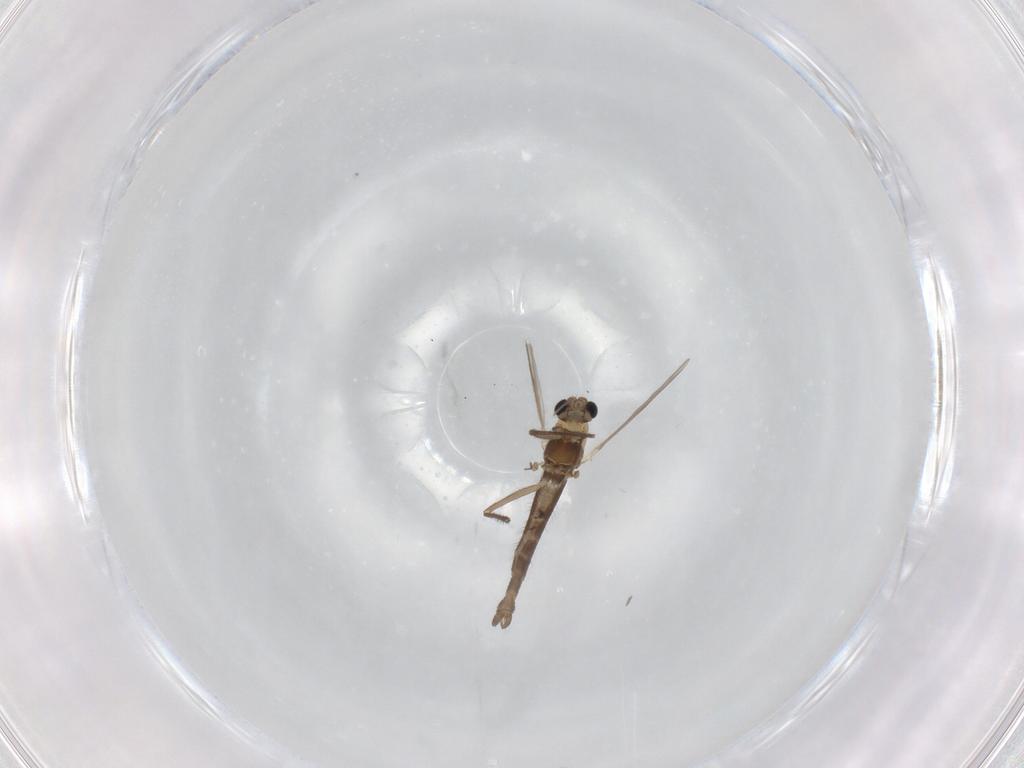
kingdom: Animalia
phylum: Arthropoda
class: Insecta
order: Diptera
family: Chironomidae
